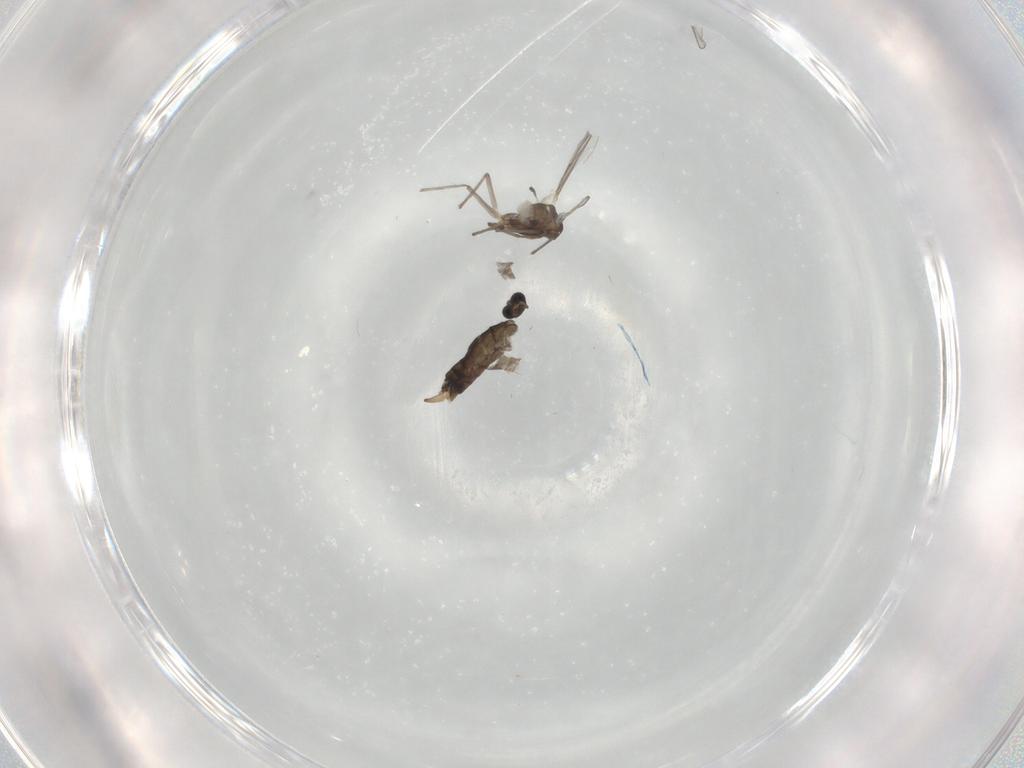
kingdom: Animalia
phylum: Arthropoda
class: Insecta
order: Diptera
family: Chironomidae
